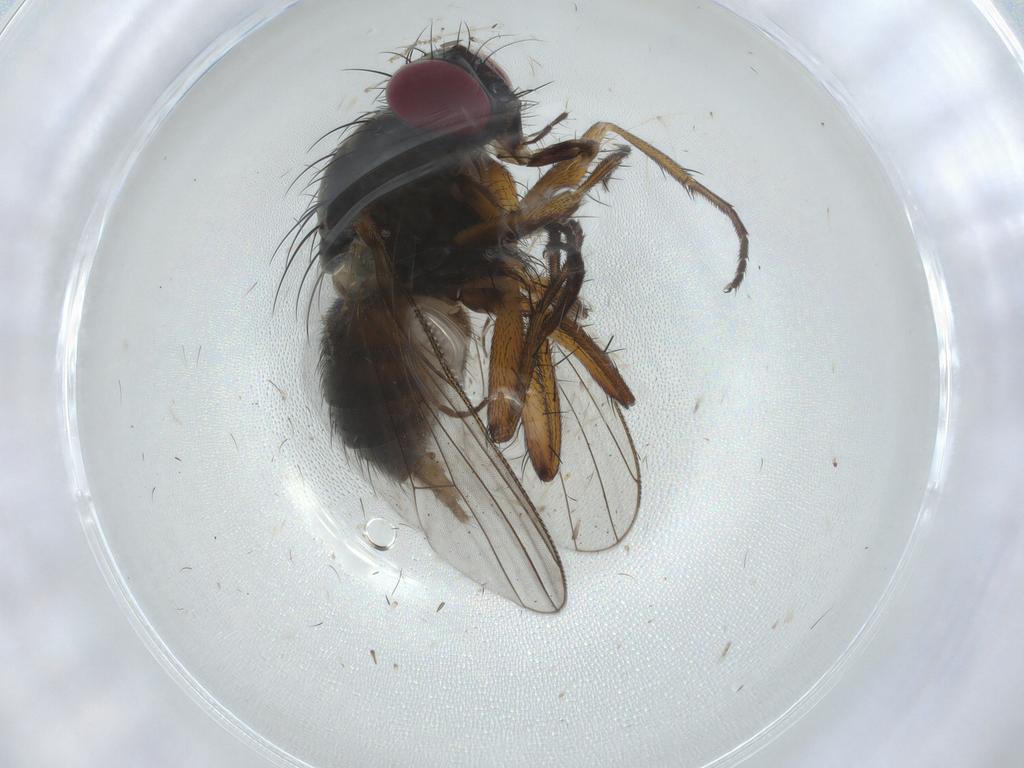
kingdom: Animalia
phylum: Arthropoda
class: Insecta
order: Diptera
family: Muscidae
